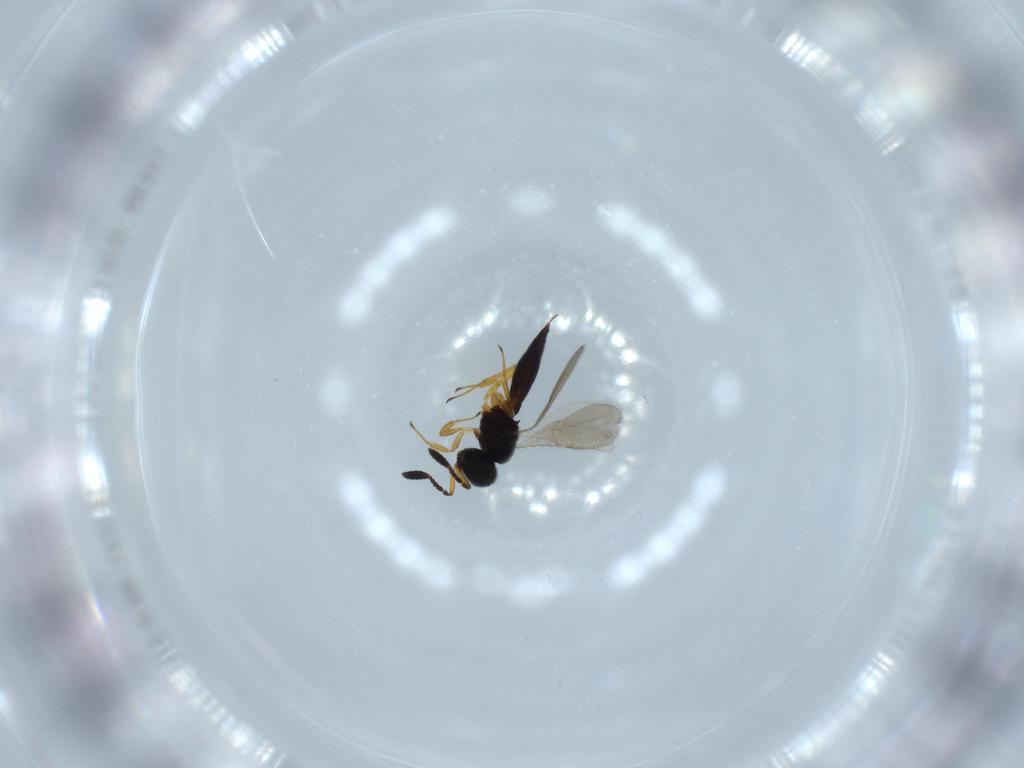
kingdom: Animalia
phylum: Arthropoda
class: Insecta
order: Hymenoptera
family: Scelionidae
